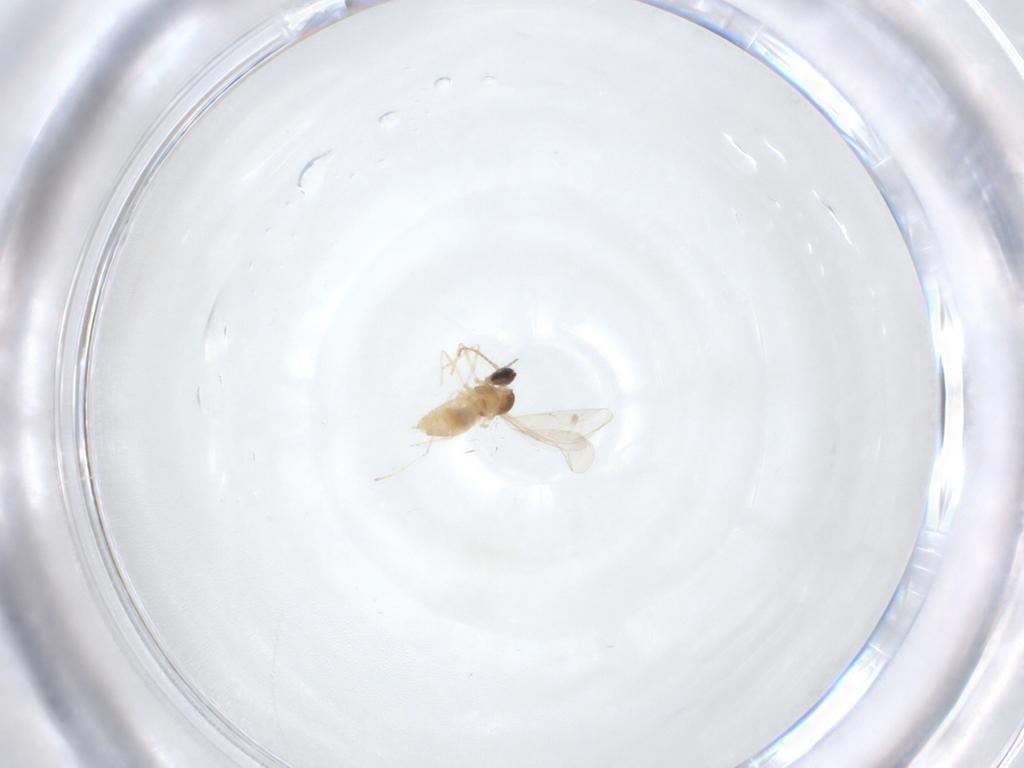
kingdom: Animalia
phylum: Arthropoda
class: Insecta
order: Diptera
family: Cecidomyiidae
